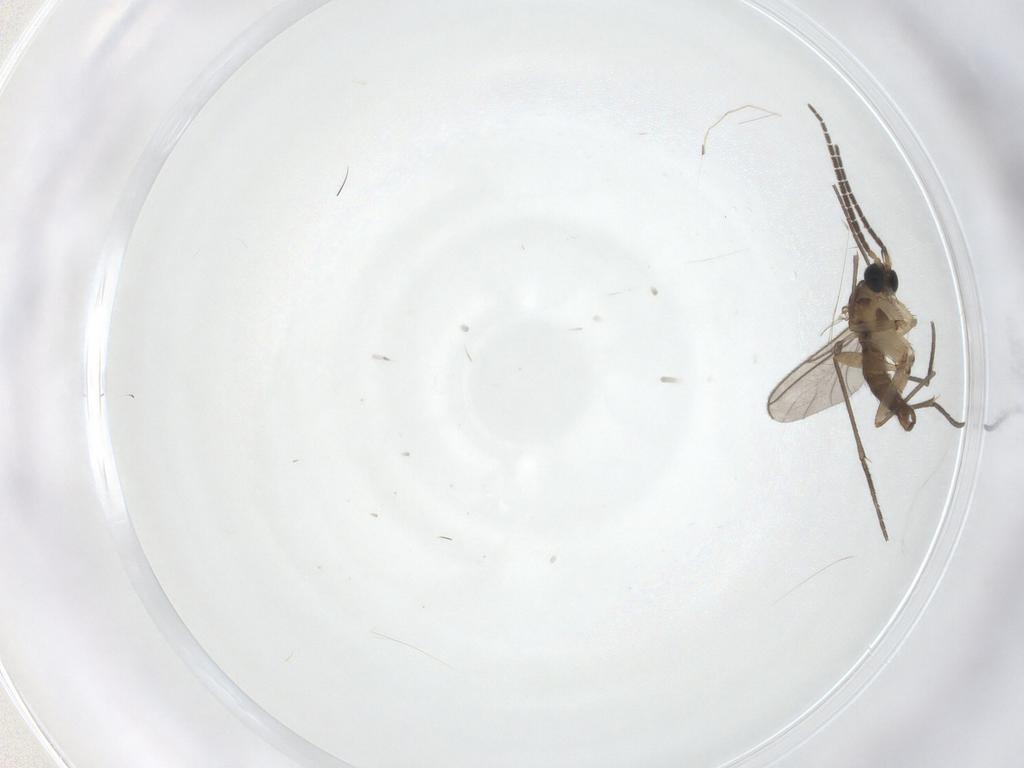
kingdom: Animalia
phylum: Arthropoda
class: Insecta
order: Diptera
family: Sciaridae
